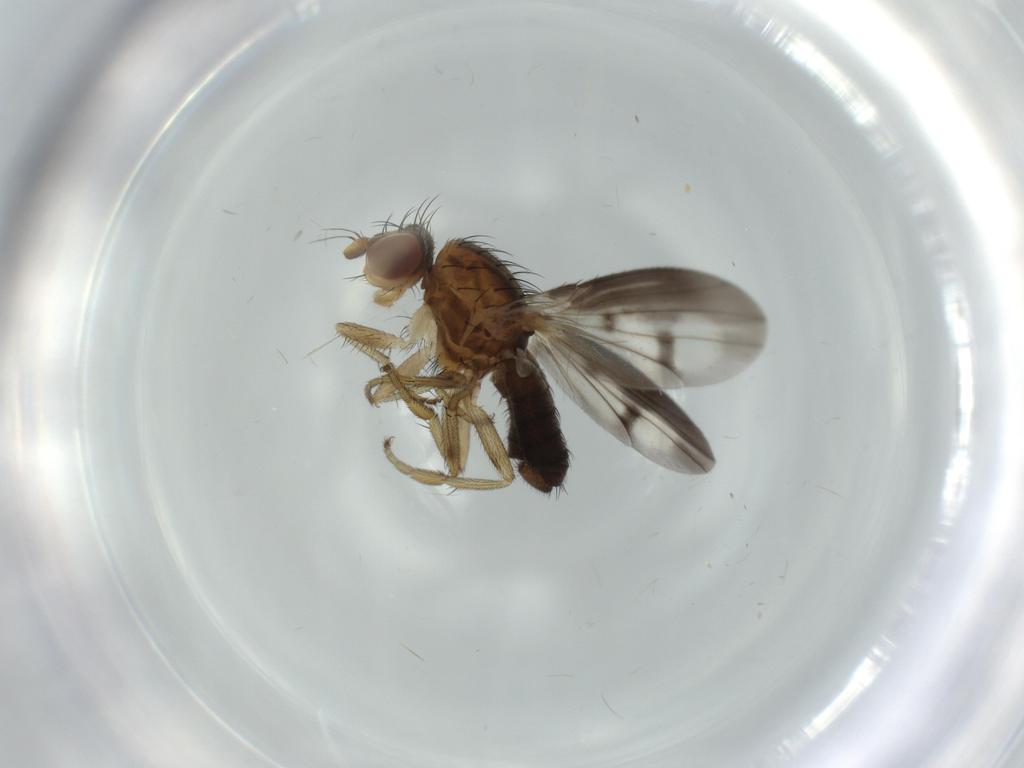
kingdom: Animalia
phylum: Arthropoda
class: Insecta
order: Diptera
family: Heleomyzidae
